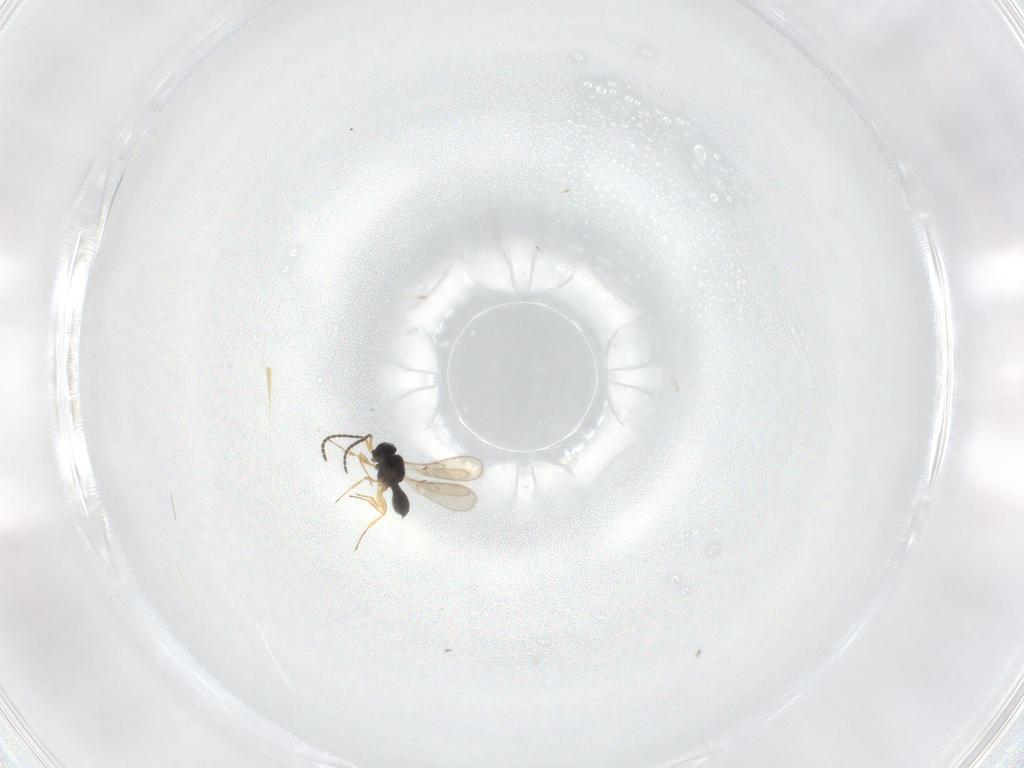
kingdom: Animalia
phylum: Arthropoda
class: Insecta
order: Hymenoptera
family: Scelionidae
